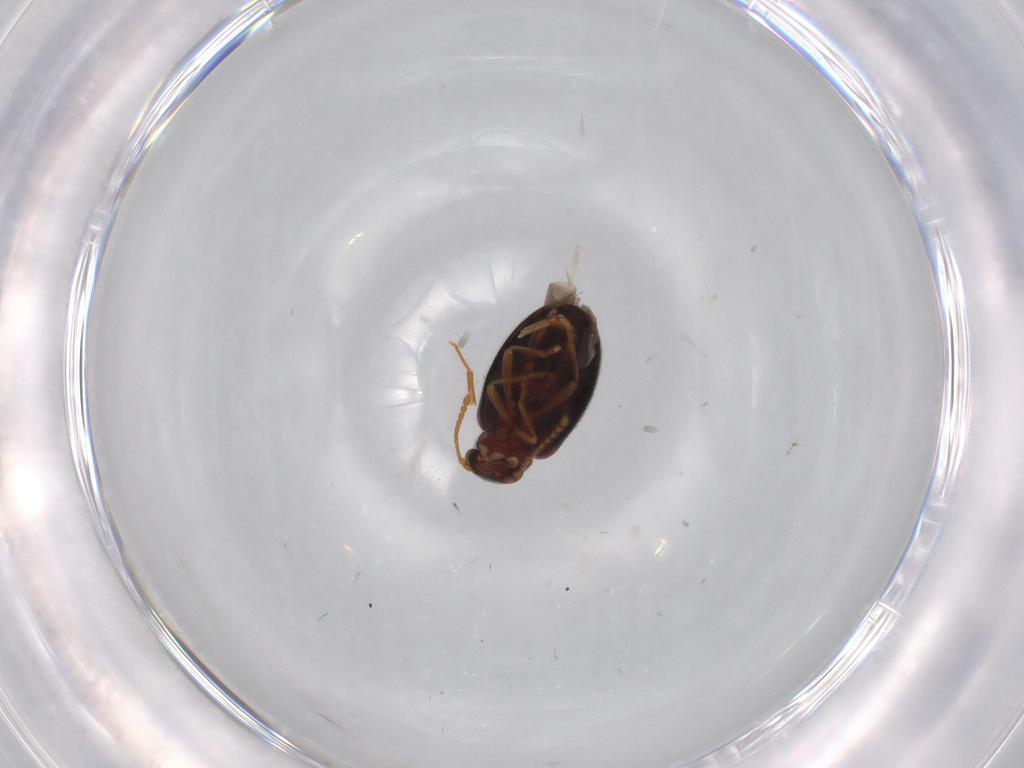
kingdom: Animalia
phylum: Arthropoda
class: Insecta
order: Coleoptera
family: Aderidae
